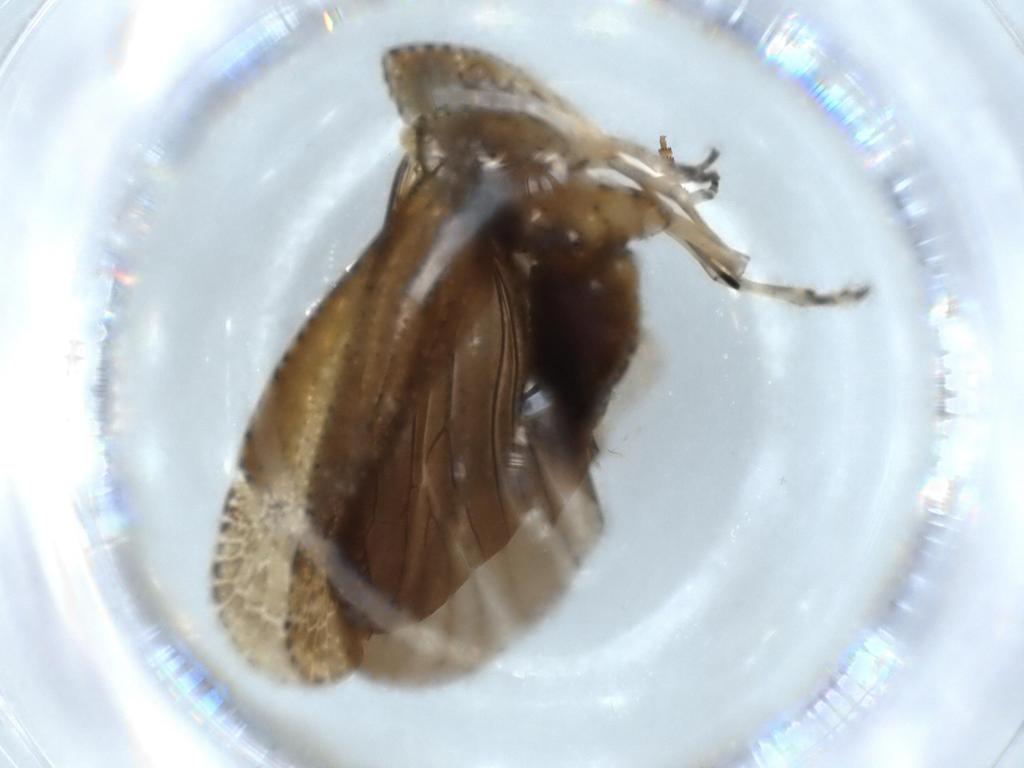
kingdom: Animalia
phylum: Arthropoda
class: Insecta
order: Hemiptera
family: Achilidae
